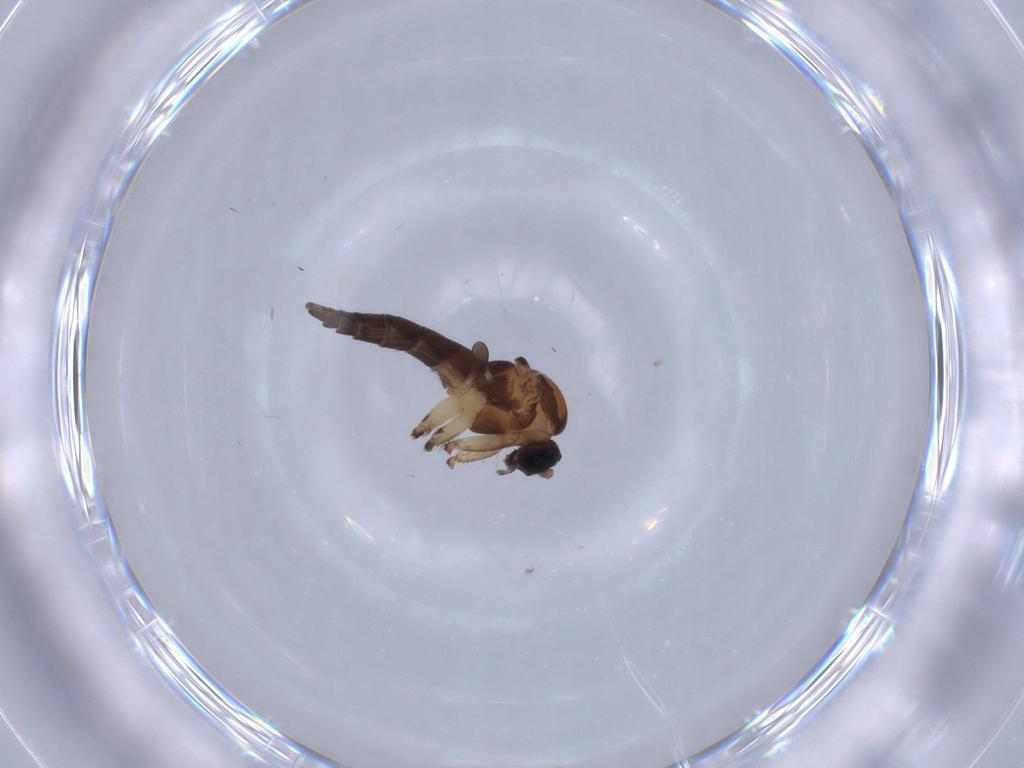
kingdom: Animalia
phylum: Arthropoda
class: Insecta
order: Diptera
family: Sciaridae
